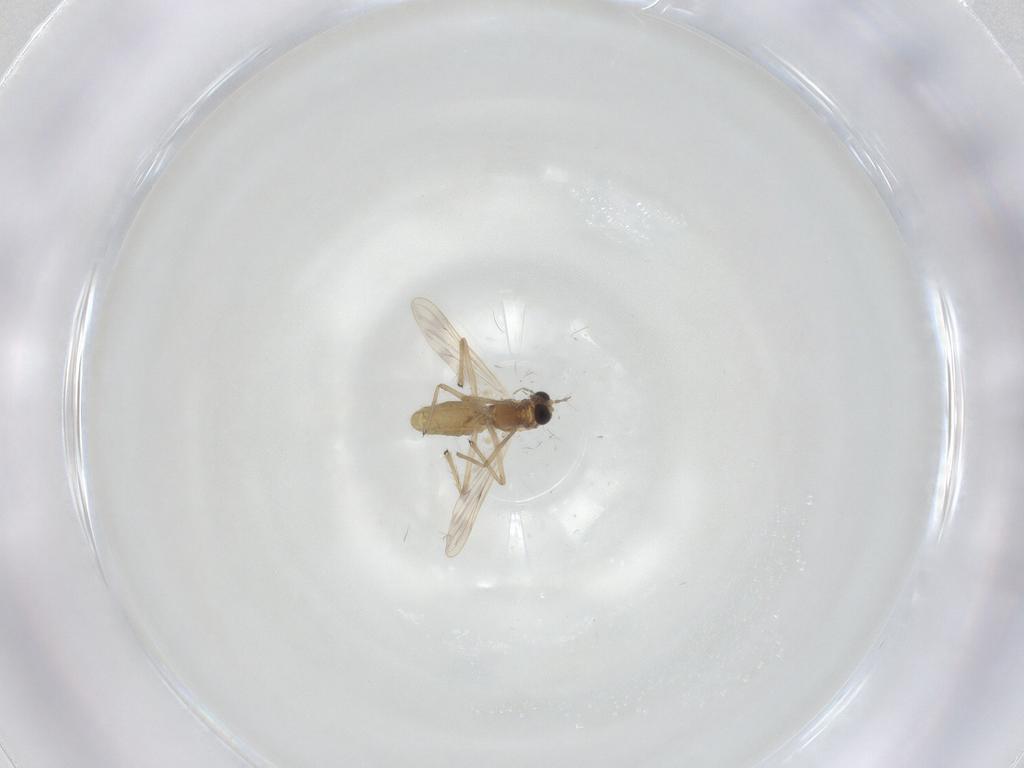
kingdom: Animalia
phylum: Arthropoda
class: Insecta
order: Diptera
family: Chironomidae
